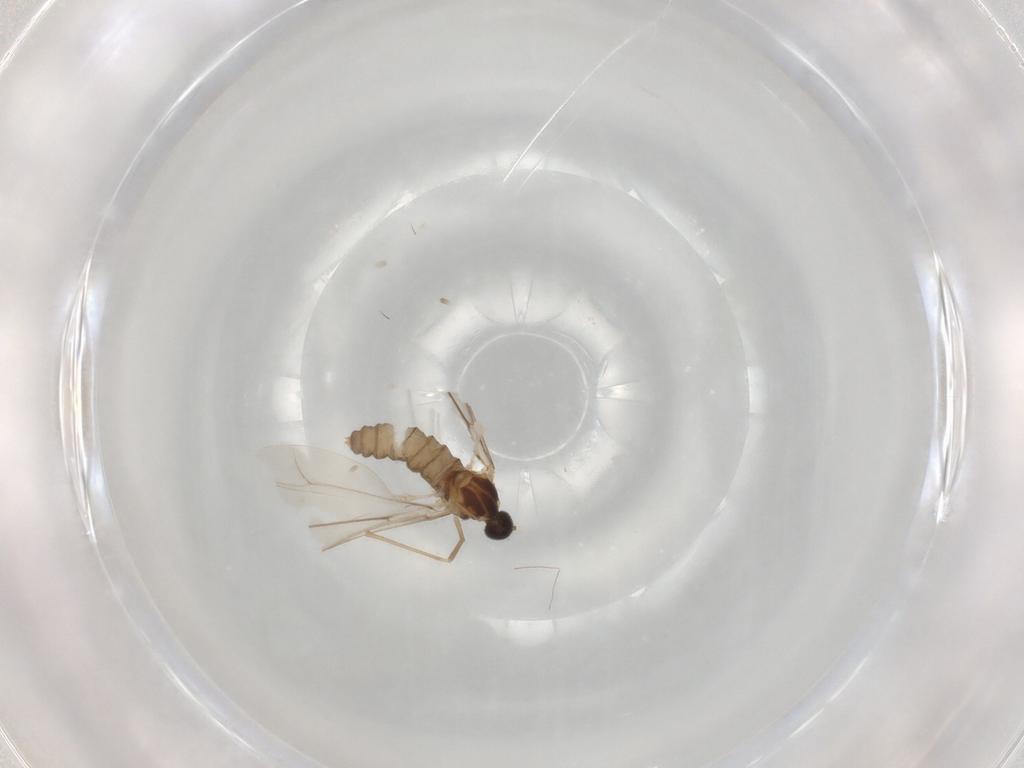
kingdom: Animalia
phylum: Arthropoda
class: Insecta
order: Diptera
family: Cecidomyiidae
